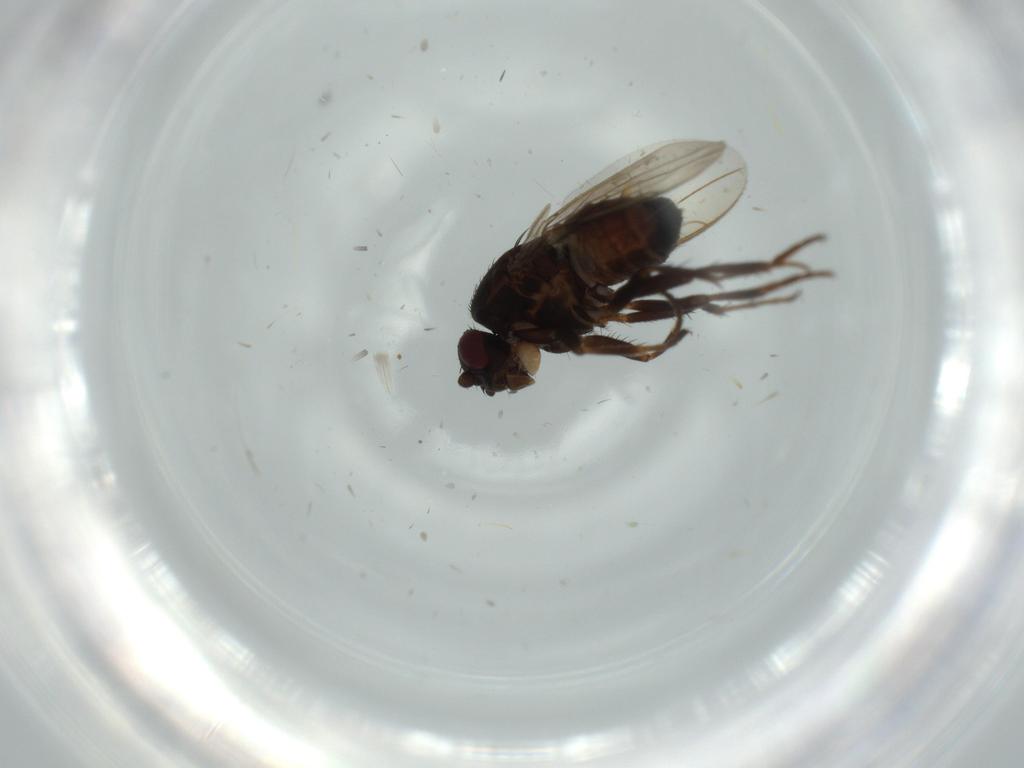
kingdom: Animalia
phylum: Arthropoda
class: Insecta
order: Diptera
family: Sphaeroceridae
